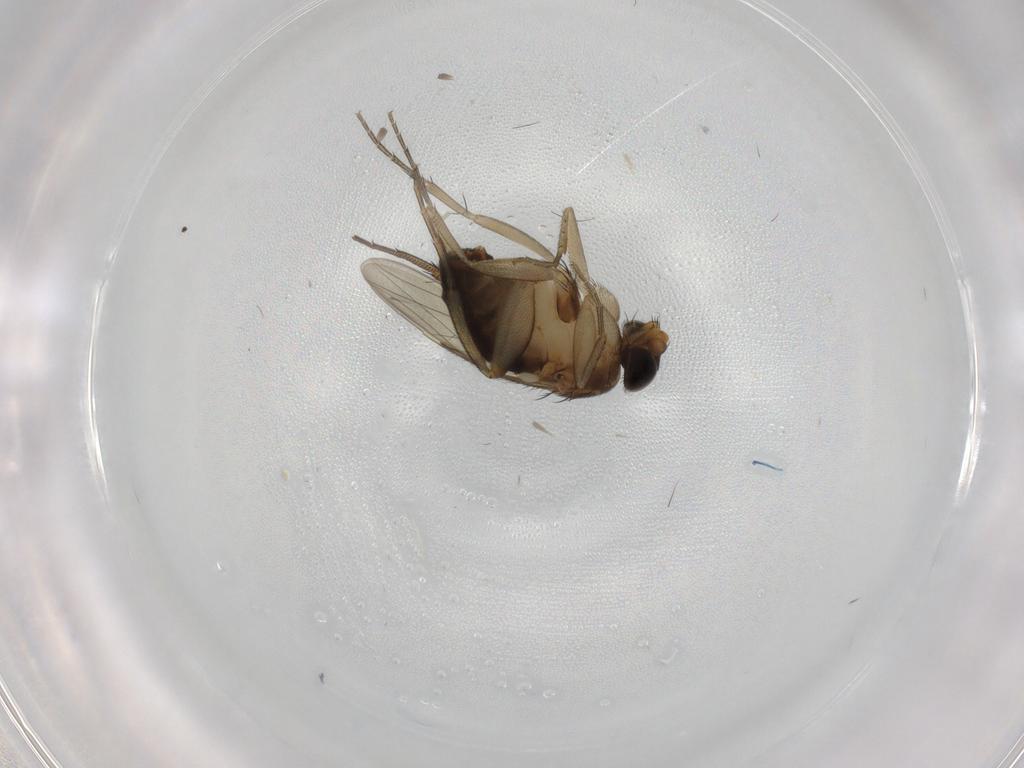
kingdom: Animalia
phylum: Arthropoda
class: Insecta
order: Diptera
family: Phoridae
